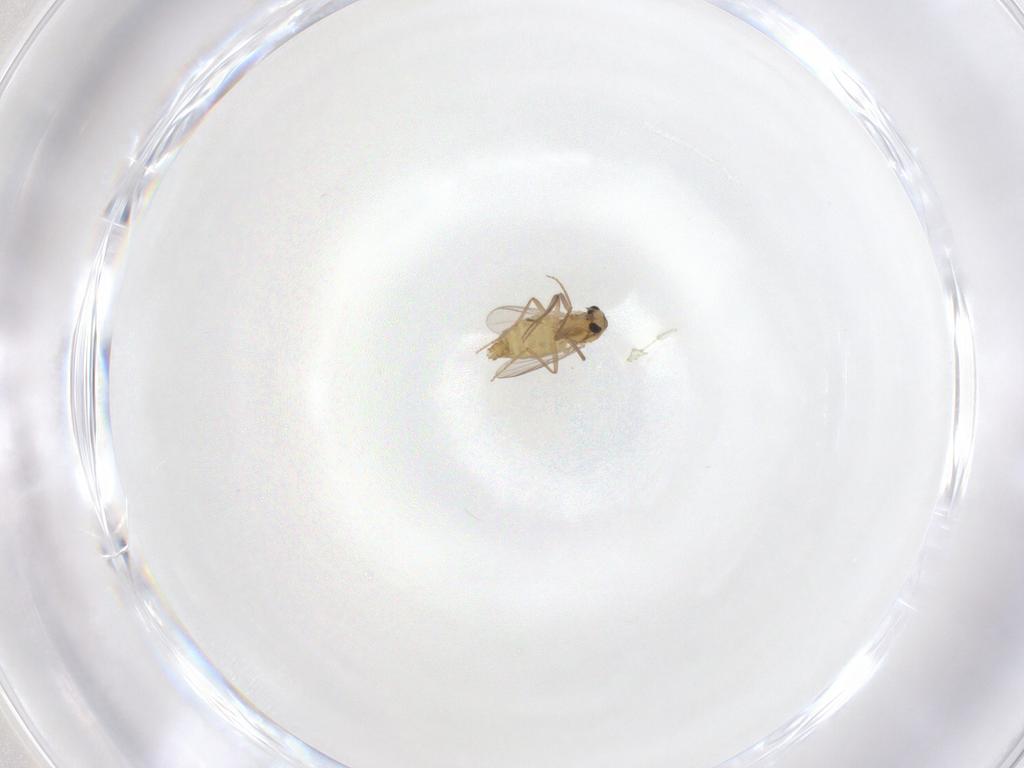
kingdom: Animalia
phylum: Arthropoda
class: Insecta
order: Diptera
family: Chironomidae
